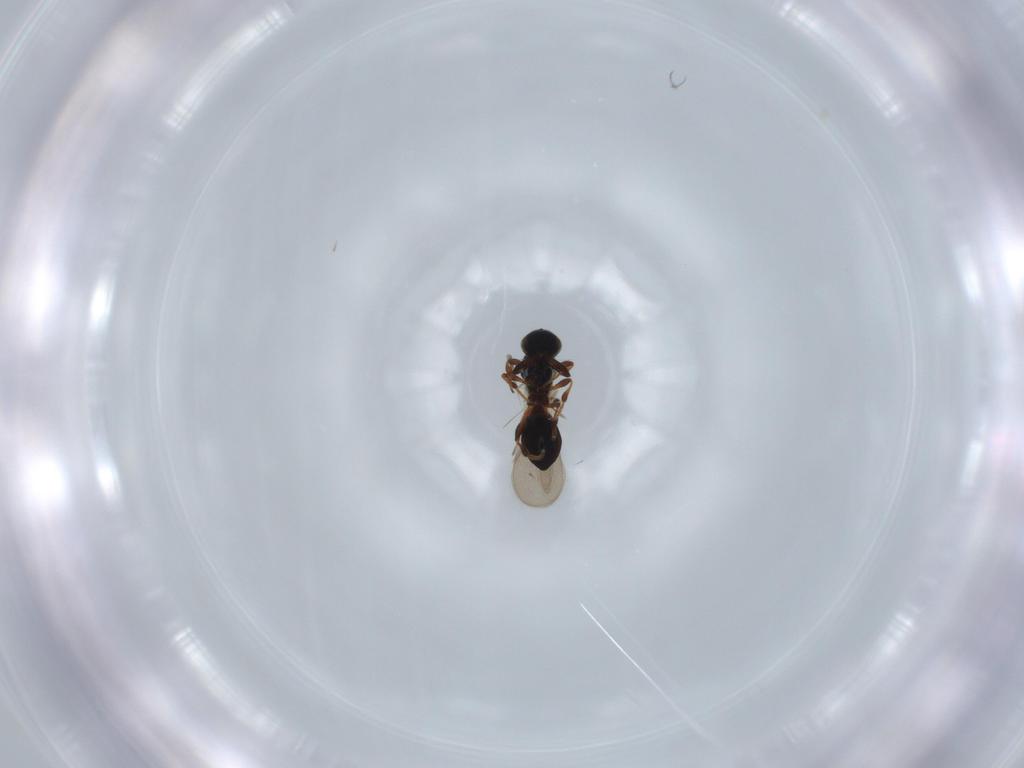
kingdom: Animalia
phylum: Arthropoda
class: Insecta
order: Hymenoptera
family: Platygastridae
